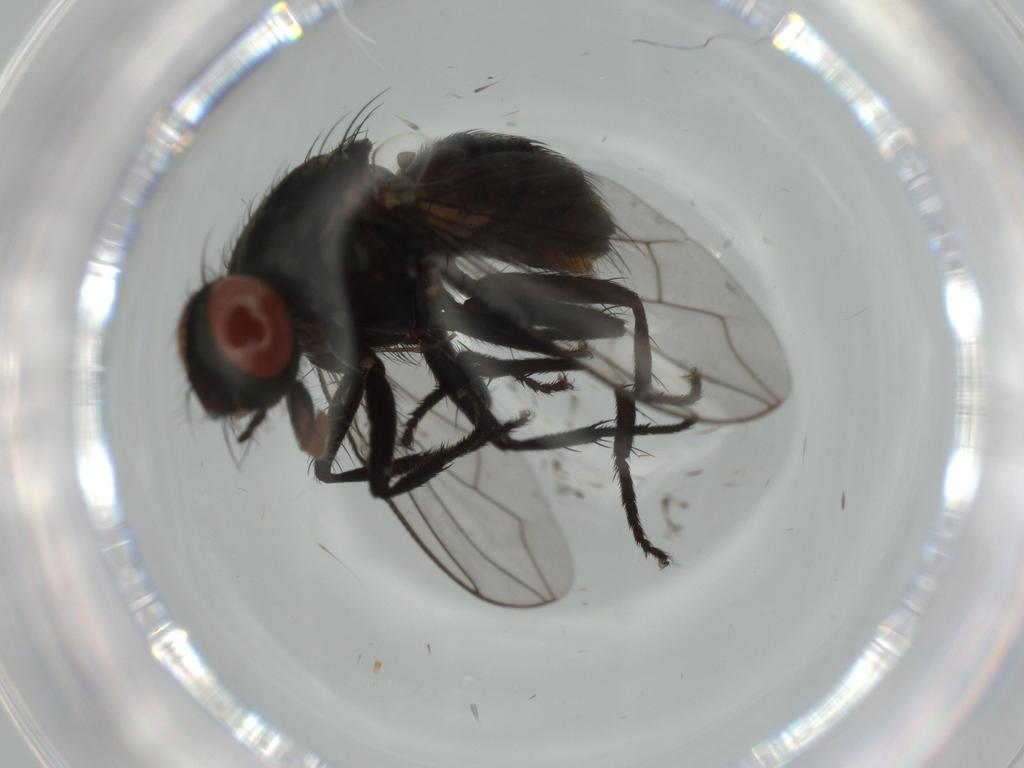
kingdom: Animalia
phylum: Arthropoda
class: Insecta
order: Diptera
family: Sarcophagidae
